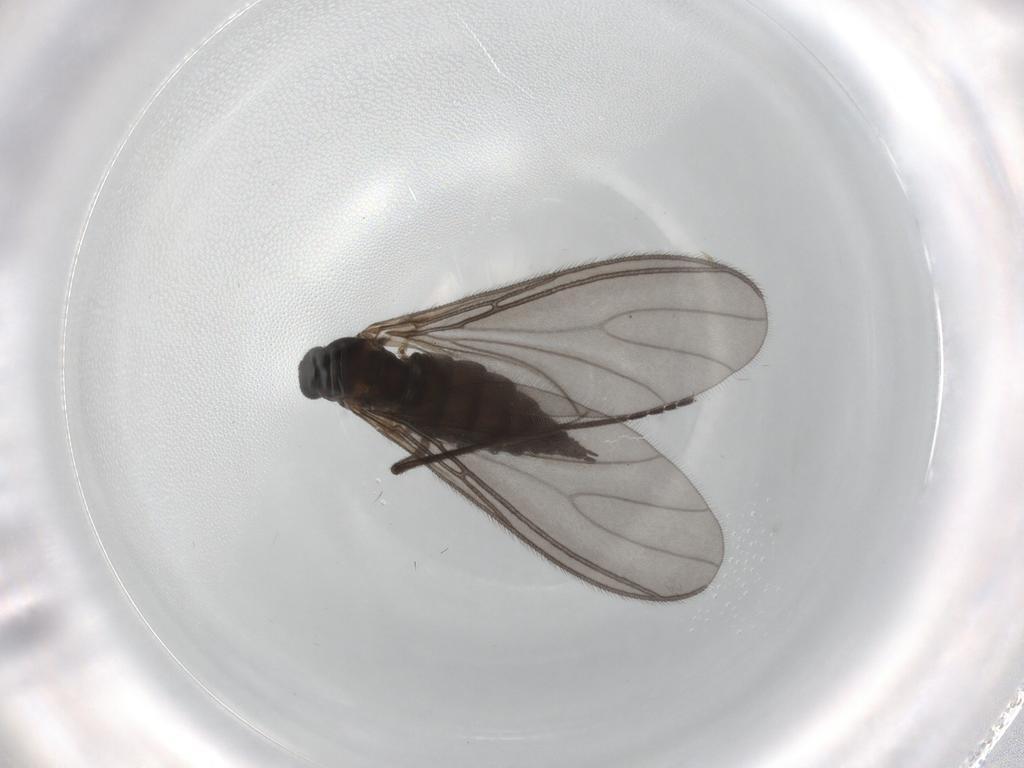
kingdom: Animalia
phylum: Arthropoda
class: Insecta
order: Diptera
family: Sciaridae
